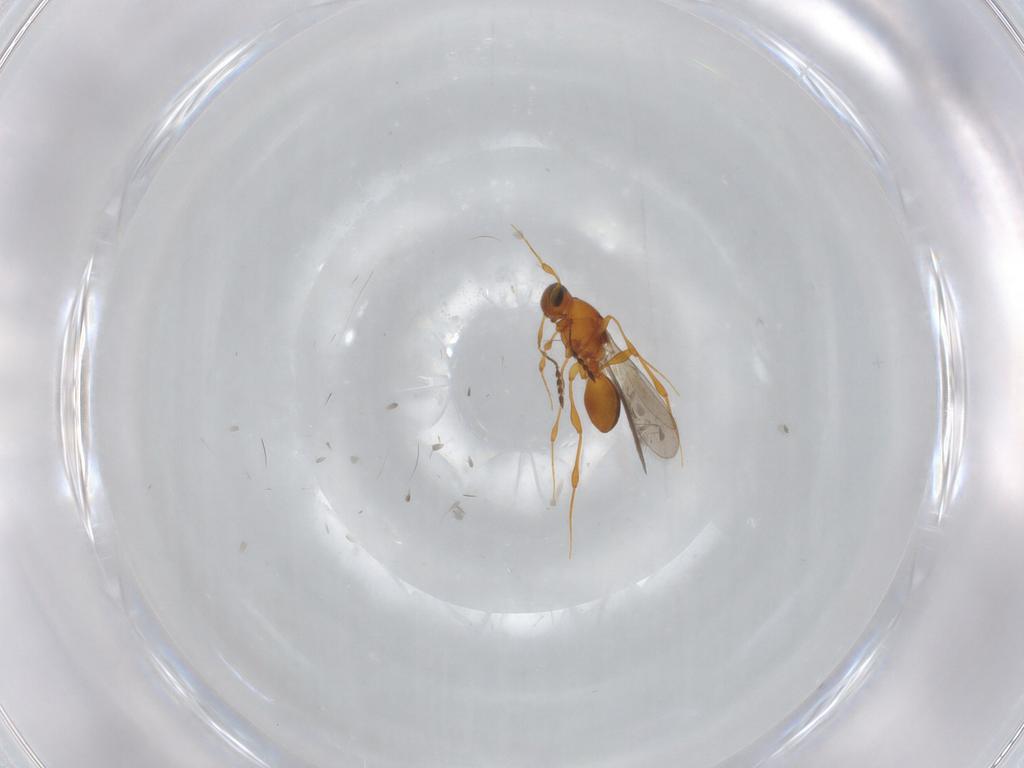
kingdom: Animalia
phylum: Arthropoda
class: Insecta
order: Hymenoptera
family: Platygastridae
